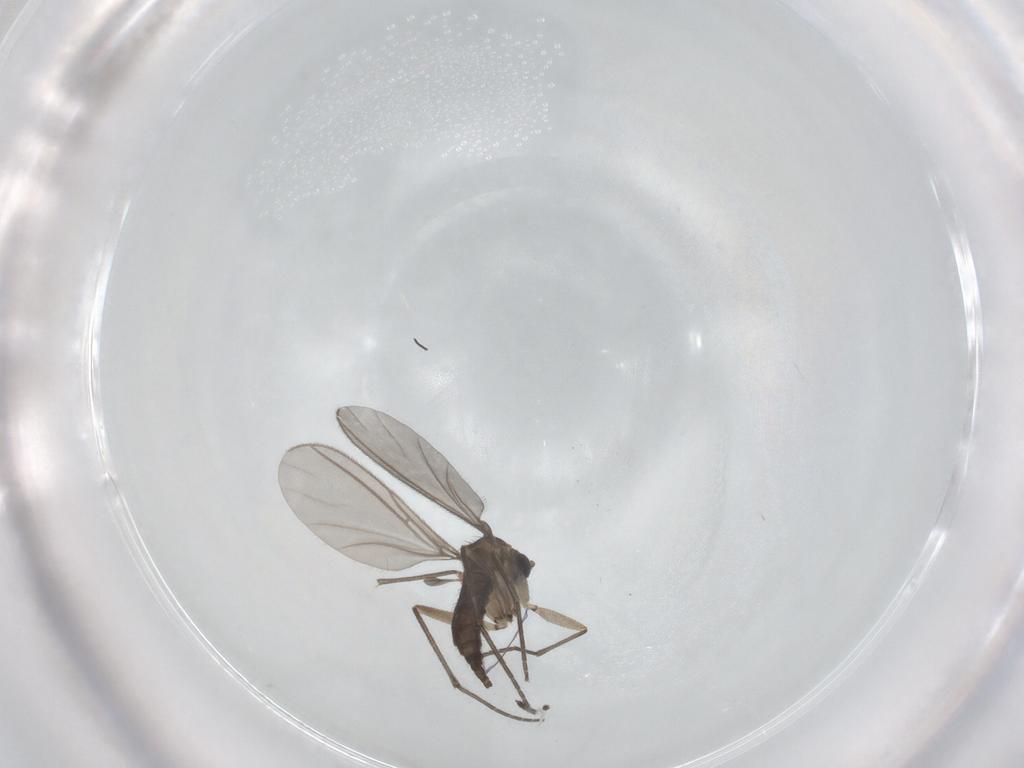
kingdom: Animalia
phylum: Arthropoda
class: Insecta
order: Diptera
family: Sciaridae
